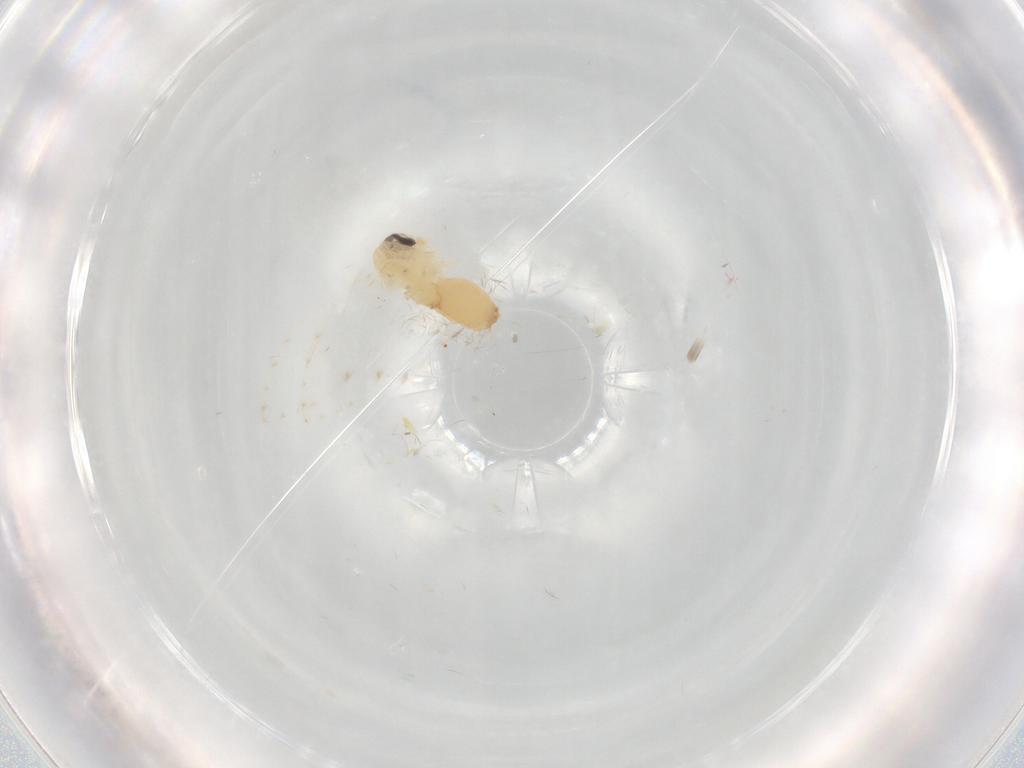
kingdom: Animalia
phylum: Arthropoda
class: Insecta
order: Diptera
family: Psychodidae
